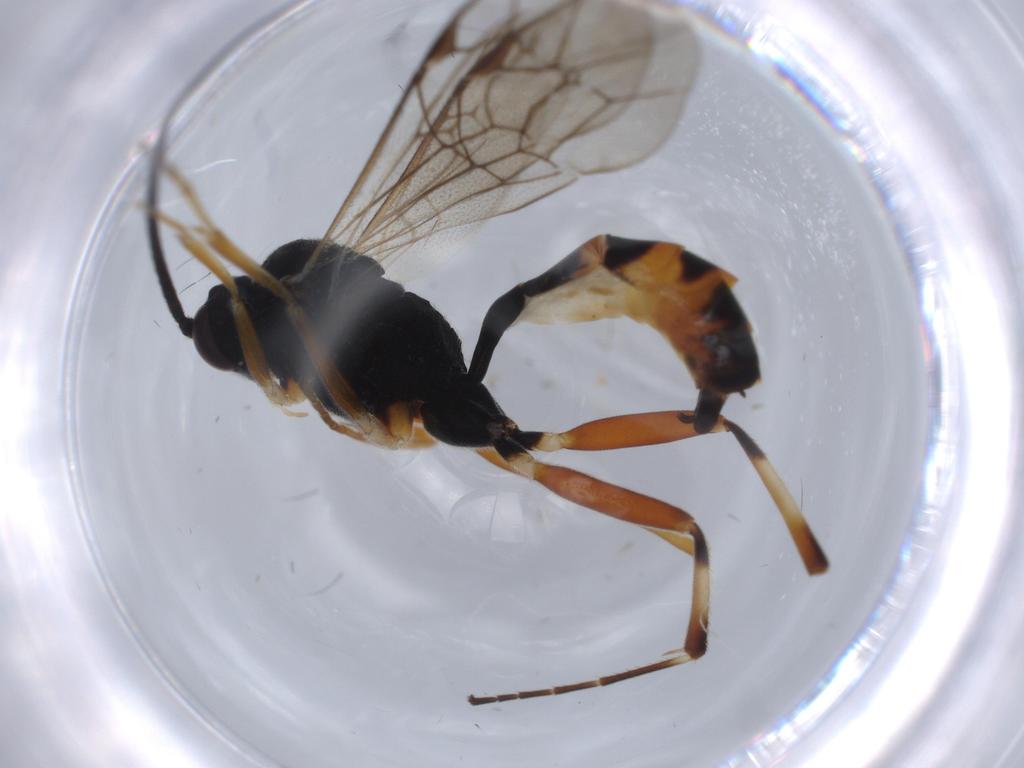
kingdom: Animalia
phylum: Arthropoda
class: Insecta
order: Hymenoptera
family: Ichneumonidae
